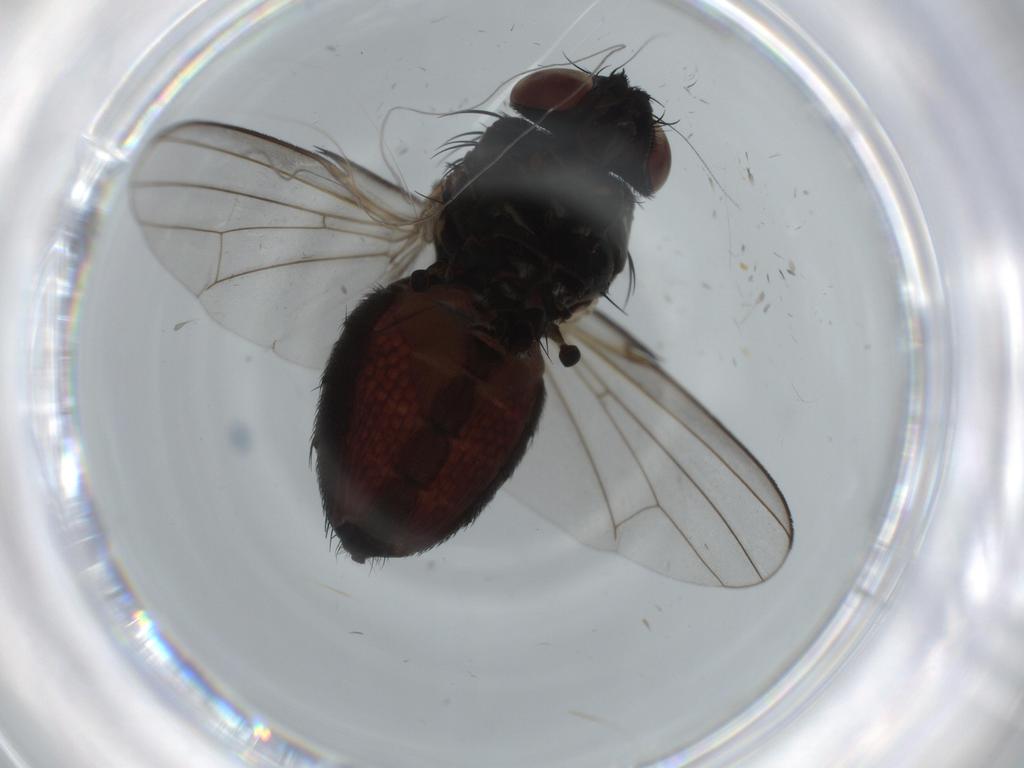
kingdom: Animalia
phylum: Arthropoda
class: Insecta
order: Diptera
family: Milichiidae
